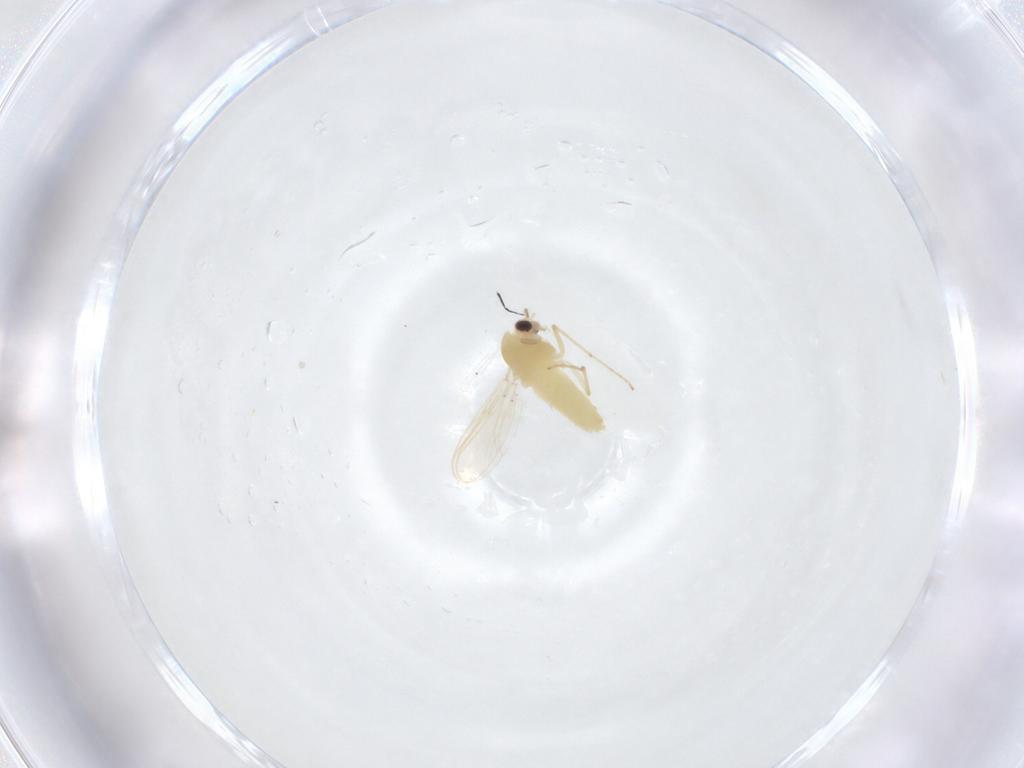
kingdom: Animalia
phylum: Arthropoda
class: Insecta
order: Diptera
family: Chironomidae
